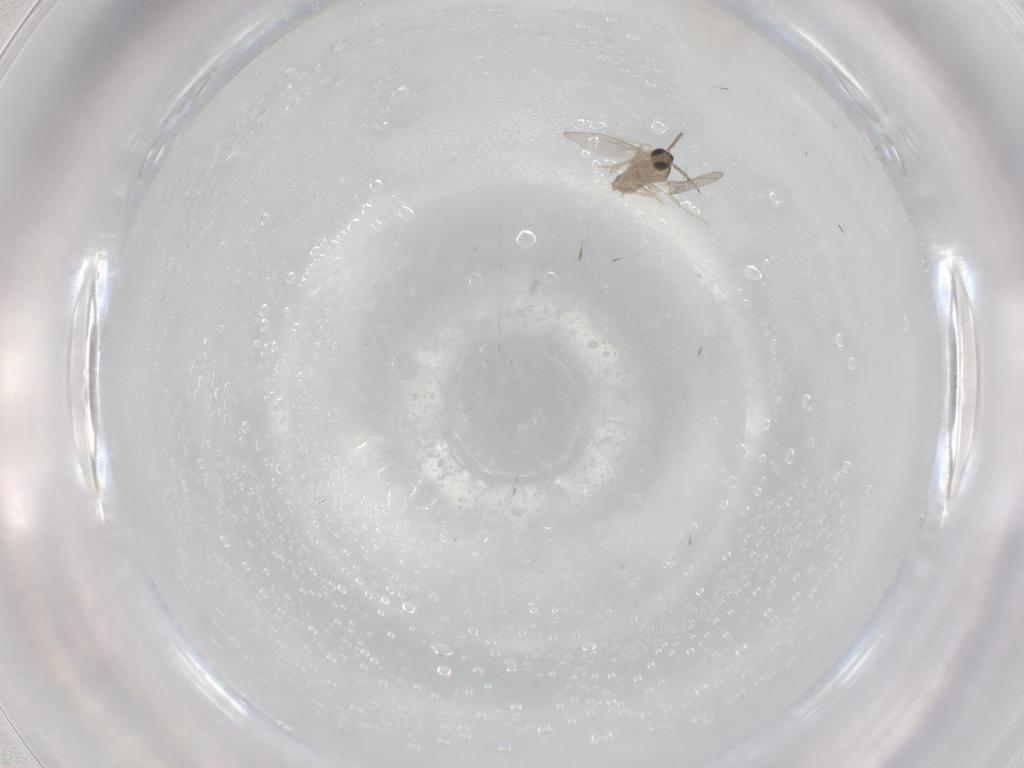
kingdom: Animalia
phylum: Arthropoda
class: Insecta
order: Diptera
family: Cecidomyiidae
